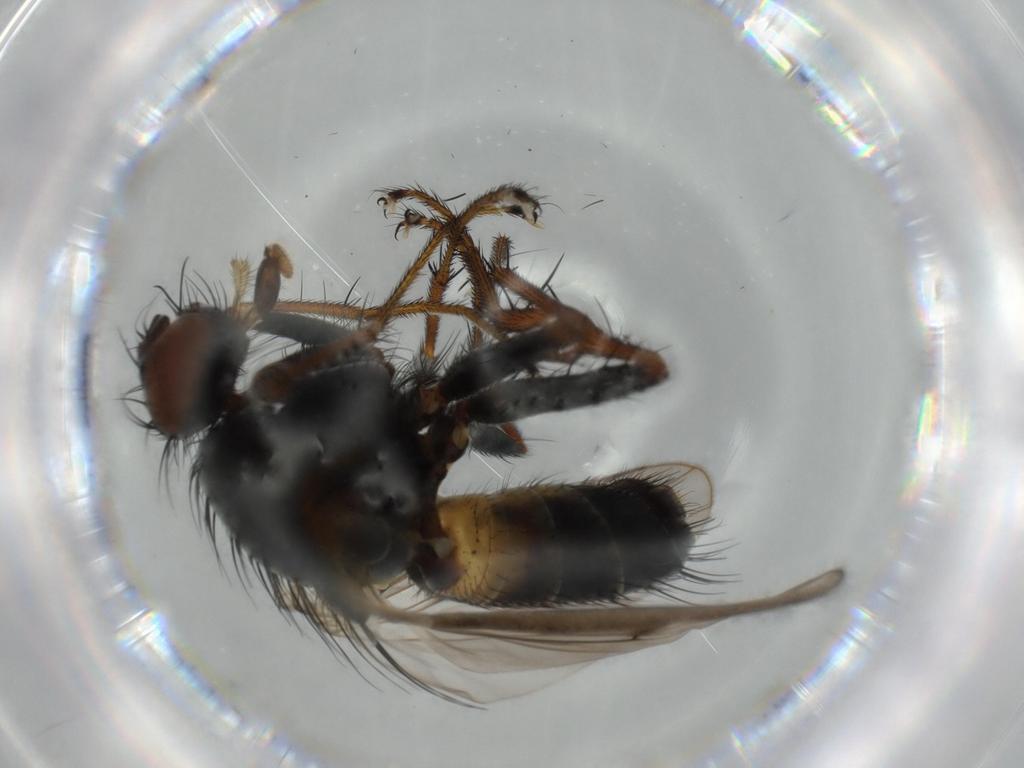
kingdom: Animalia
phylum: Arthropoda
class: Insecta
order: Diptera
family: Muscidae
